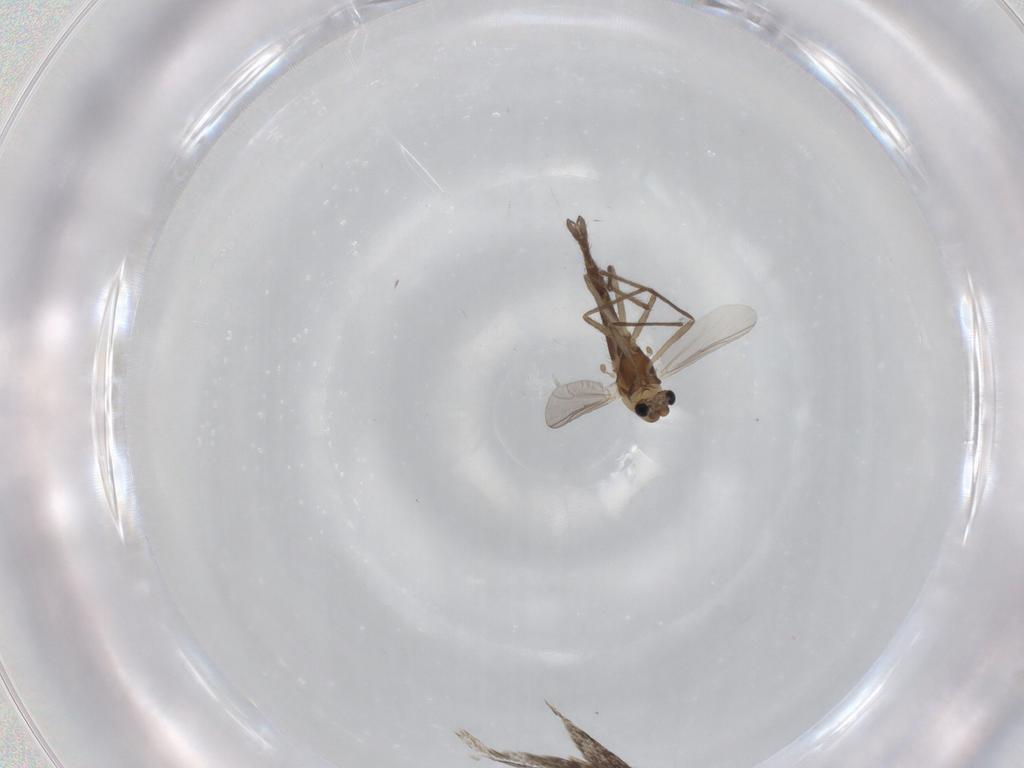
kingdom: Animalia
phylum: Arthropoda
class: Insecta
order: Diptera
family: Chironomidae
